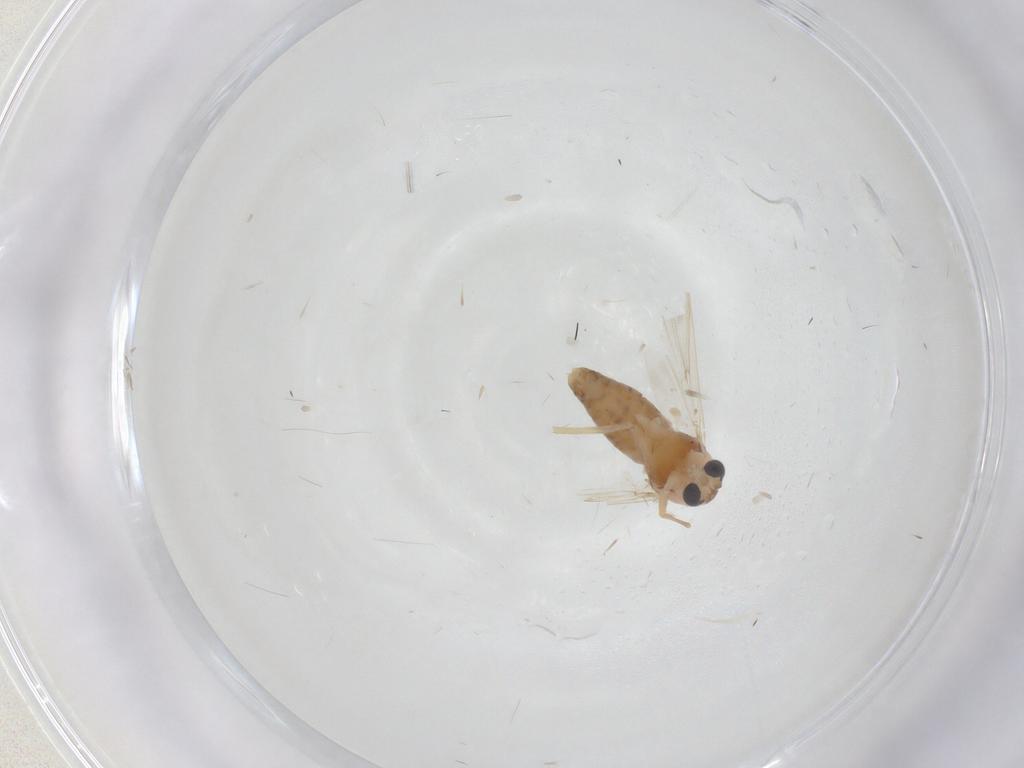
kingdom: Animalia
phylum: Arthropoda
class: Insecta
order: Diptera
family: Chironomidae
